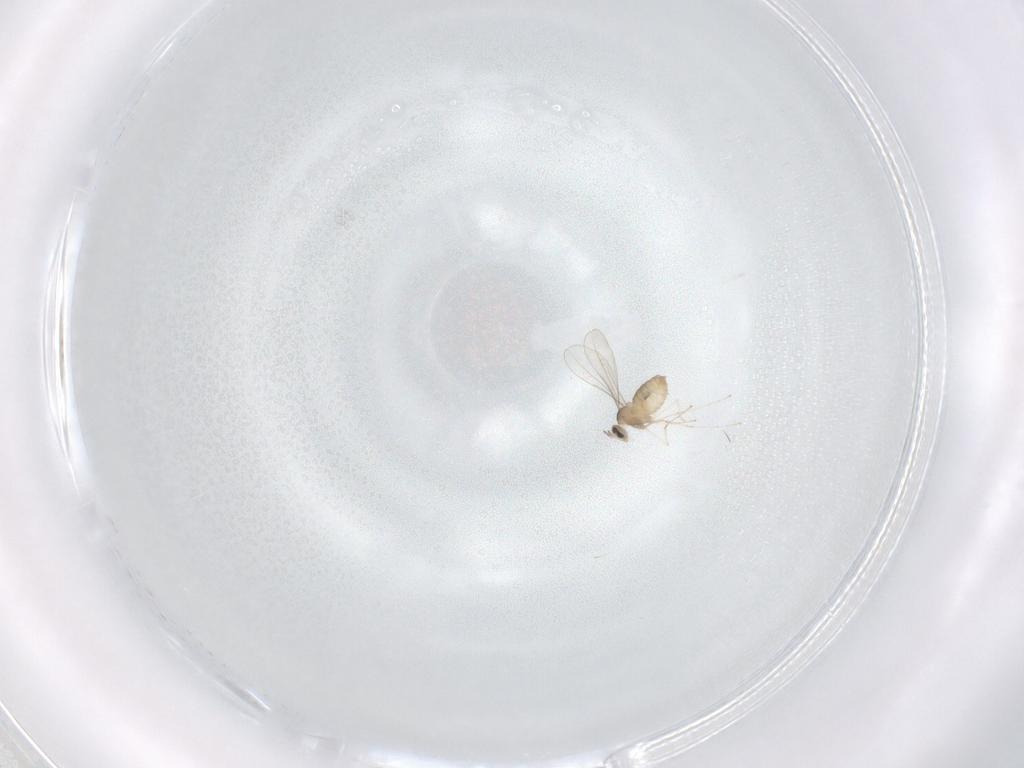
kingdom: Animalia
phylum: Arthropoda
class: Insecta
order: Diptera
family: Cecidomyiidae
